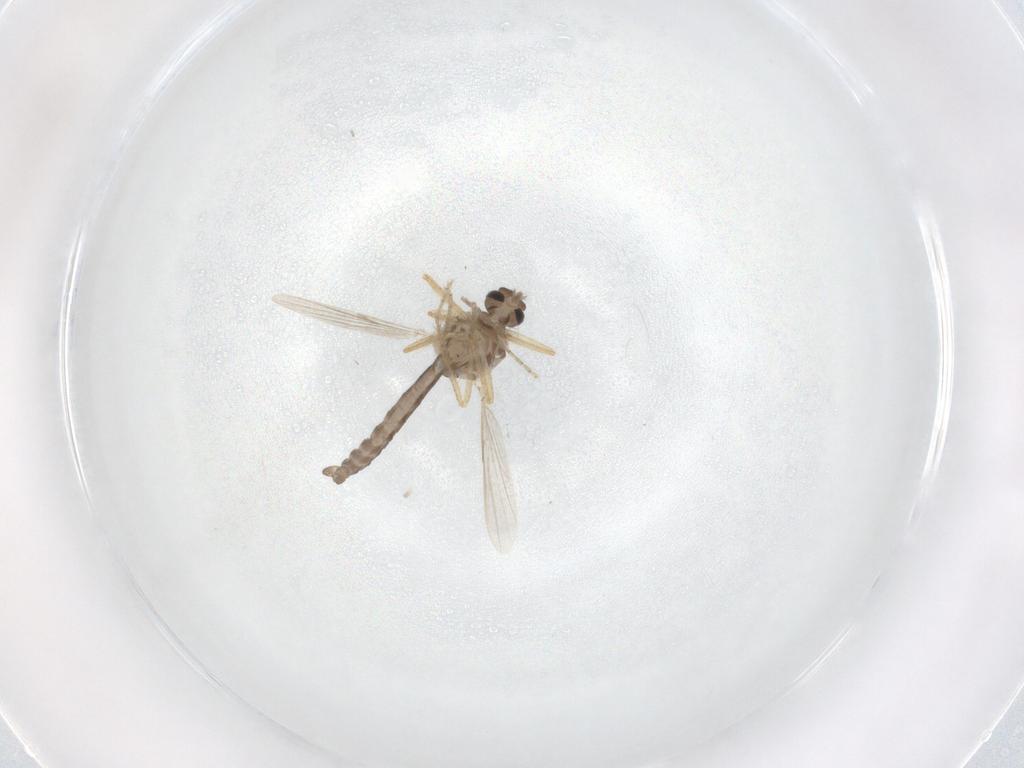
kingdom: Animalia
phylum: Arthropoda
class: Insecta
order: Diptera
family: Ceratopogonidae
